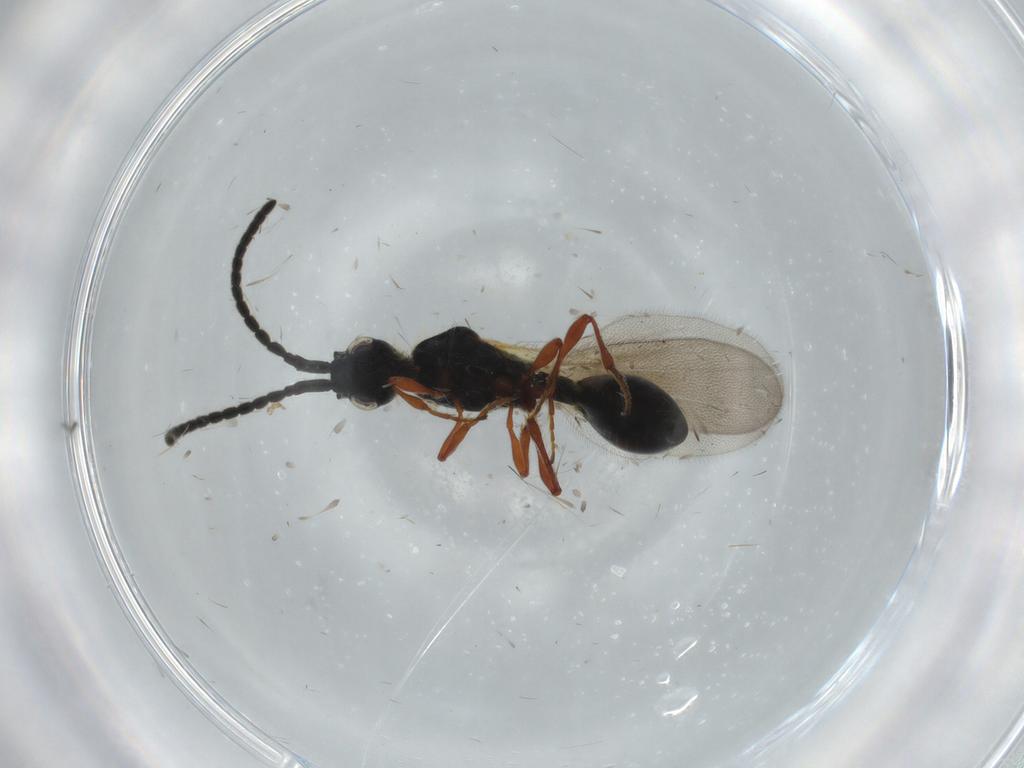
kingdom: Animalia
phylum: Arthropoda
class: Insecta
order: Hymenoptera
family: Diapriidae
